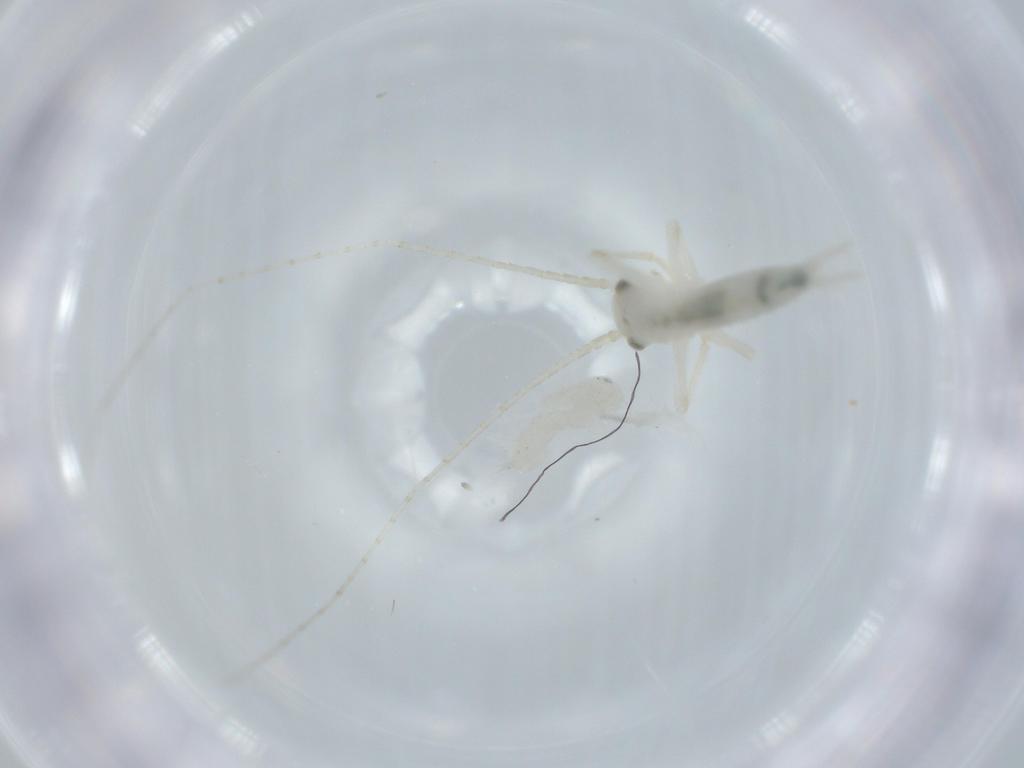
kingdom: Animalia
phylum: Arthropoda
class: Insecta
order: Orthoptera
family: Trigonidiidae
